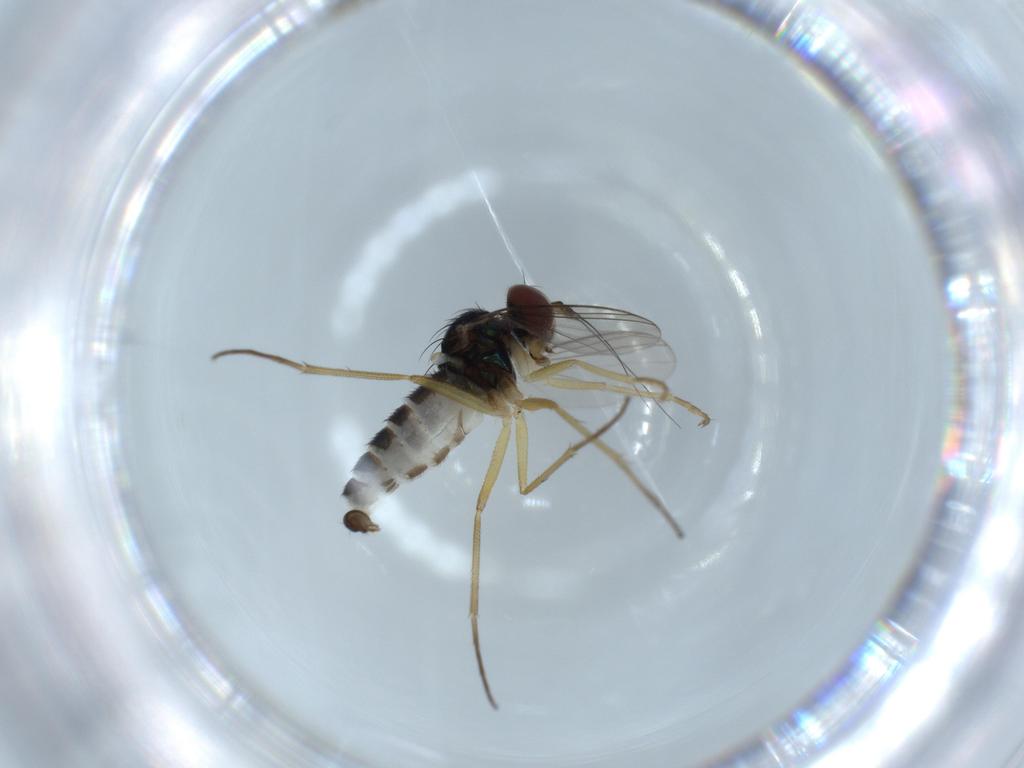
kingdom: Animalia
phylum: Arthropoda
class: Insecta
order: Diptera
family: Dolichopodidae
